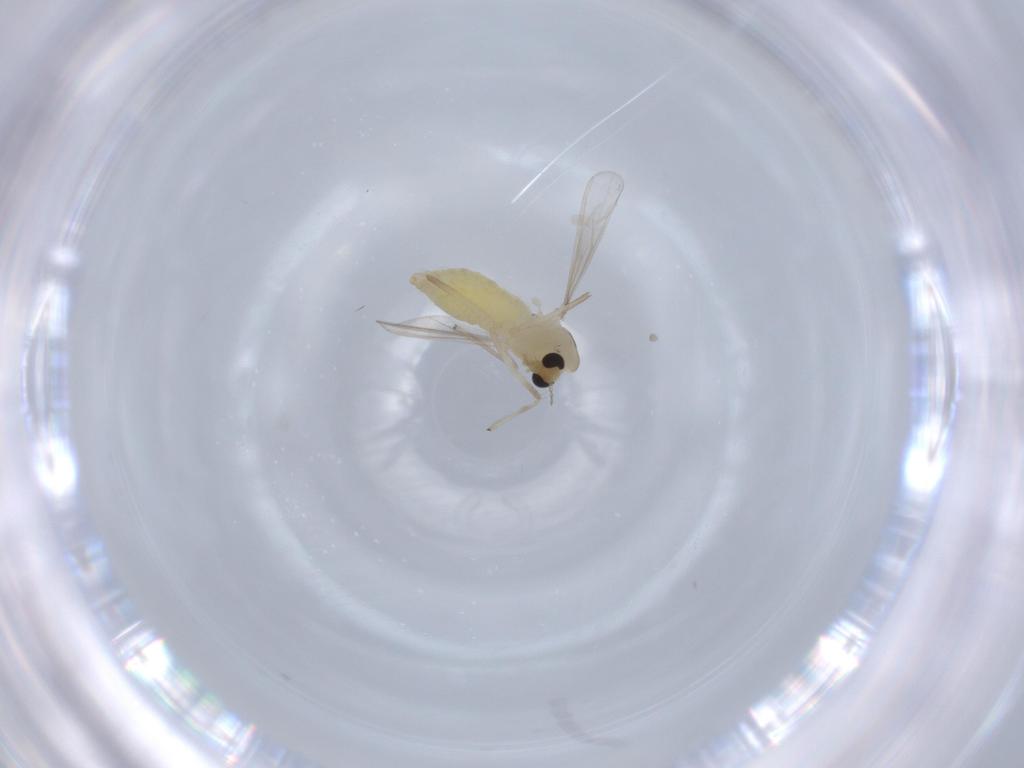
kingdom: Animalia
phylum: Arthropoda
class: Insecta
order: Diptera
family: Chironomidae
